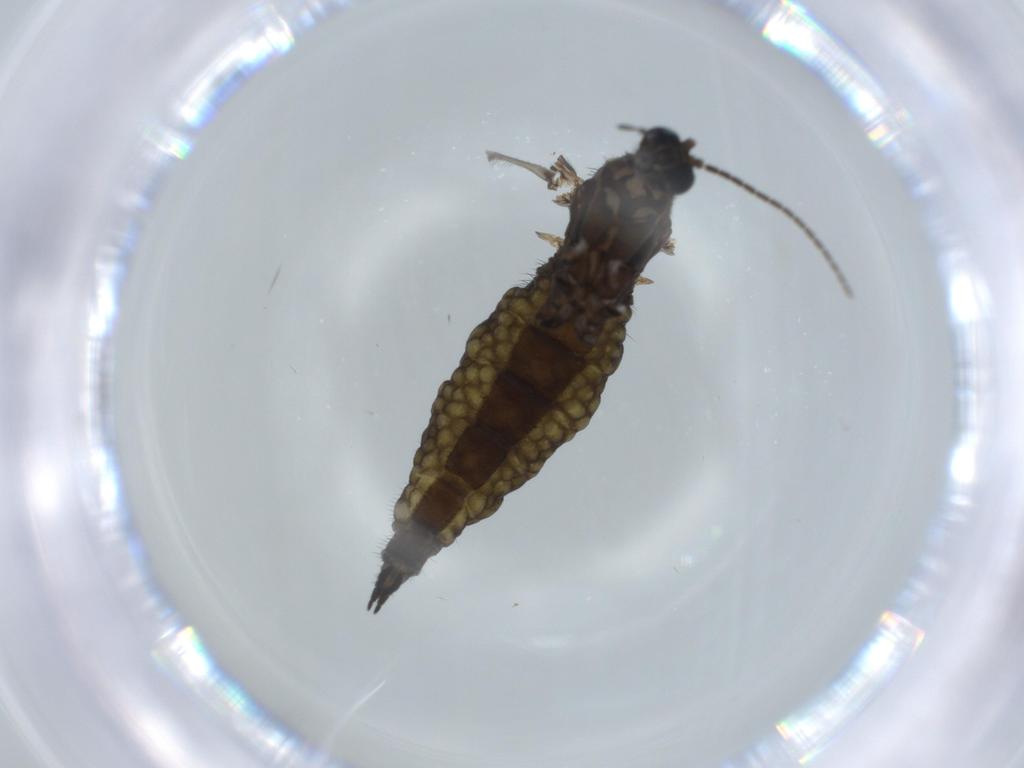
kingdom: Animalia
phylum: Arthropoda
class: Insecta
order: Diptera
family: Sciaridae
